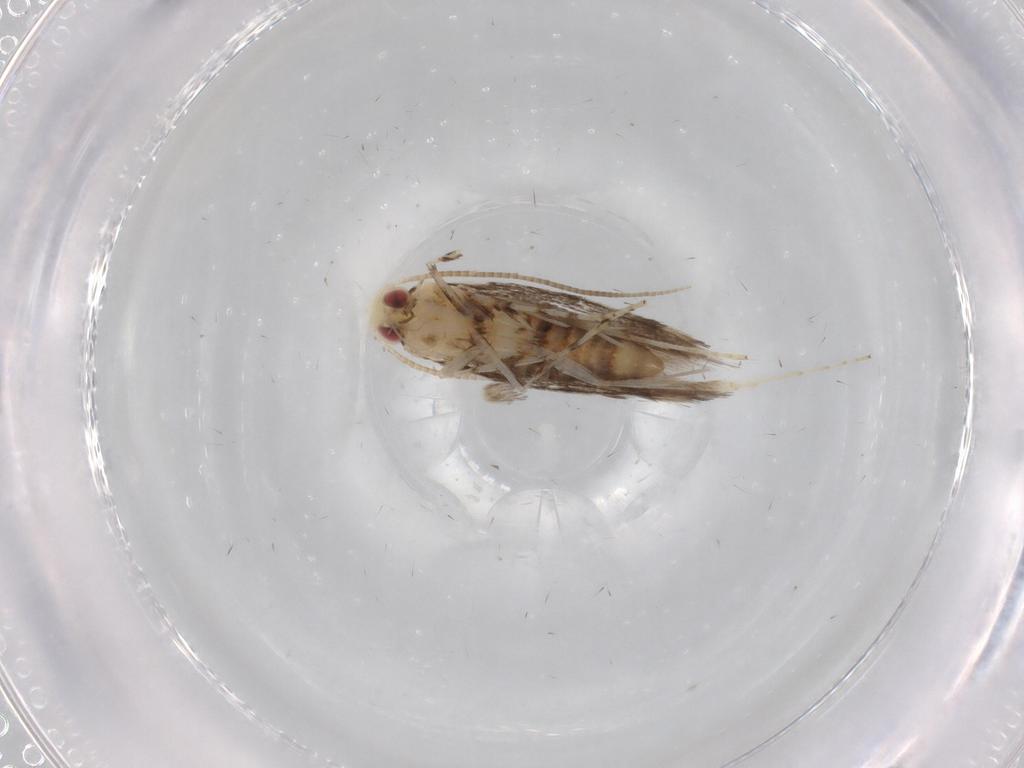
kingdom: Animalia
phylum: Arthropoda
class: Insecta
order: Lepidoptera
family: Gracillariidae
